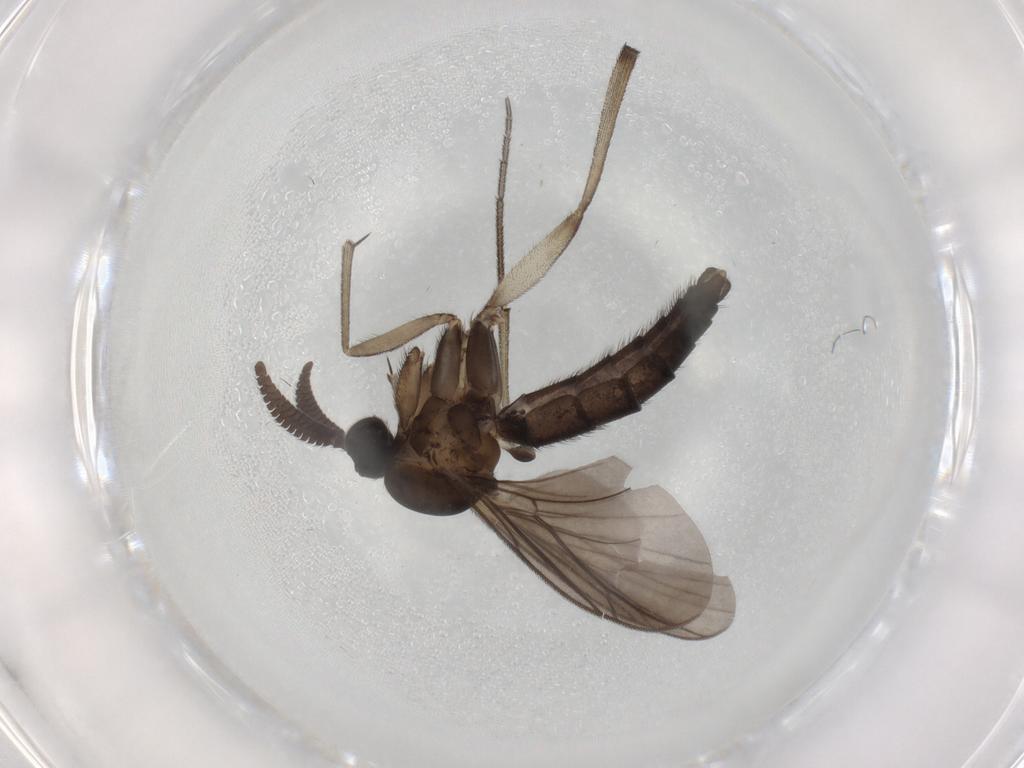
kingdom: Animalia
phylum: Arthropoda
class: Insecta
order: Diptera
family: Keroplatidae
